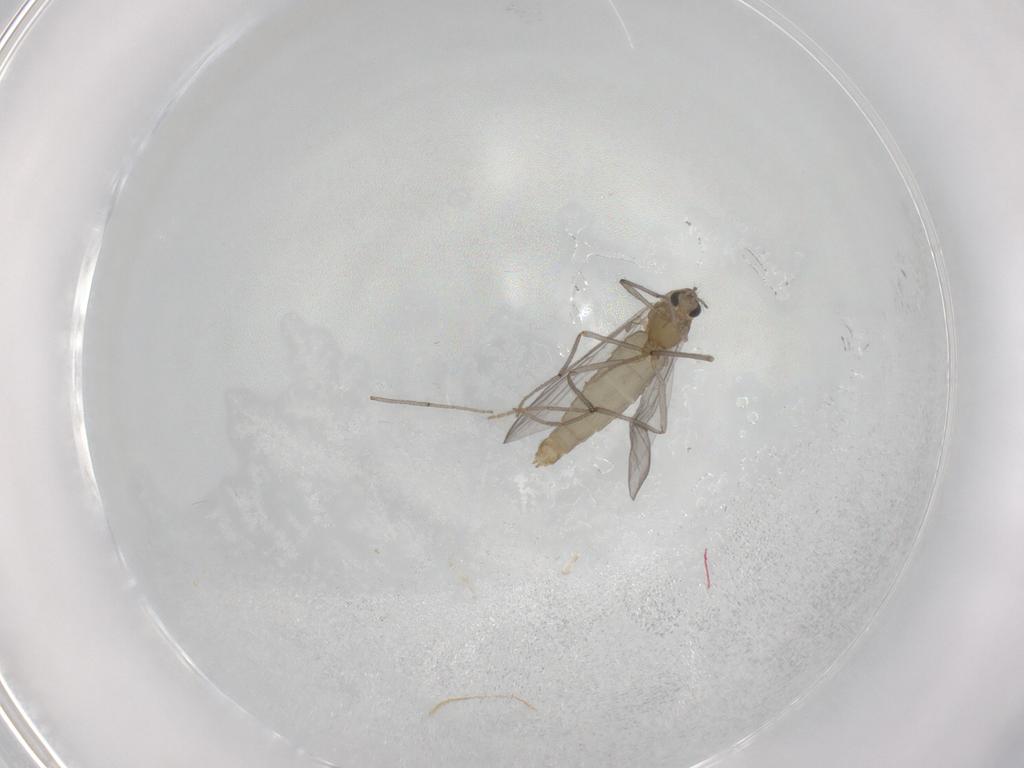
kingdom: Animalia
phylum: Arthropoda
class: Insecta
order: Diptera
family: Chironomidae
